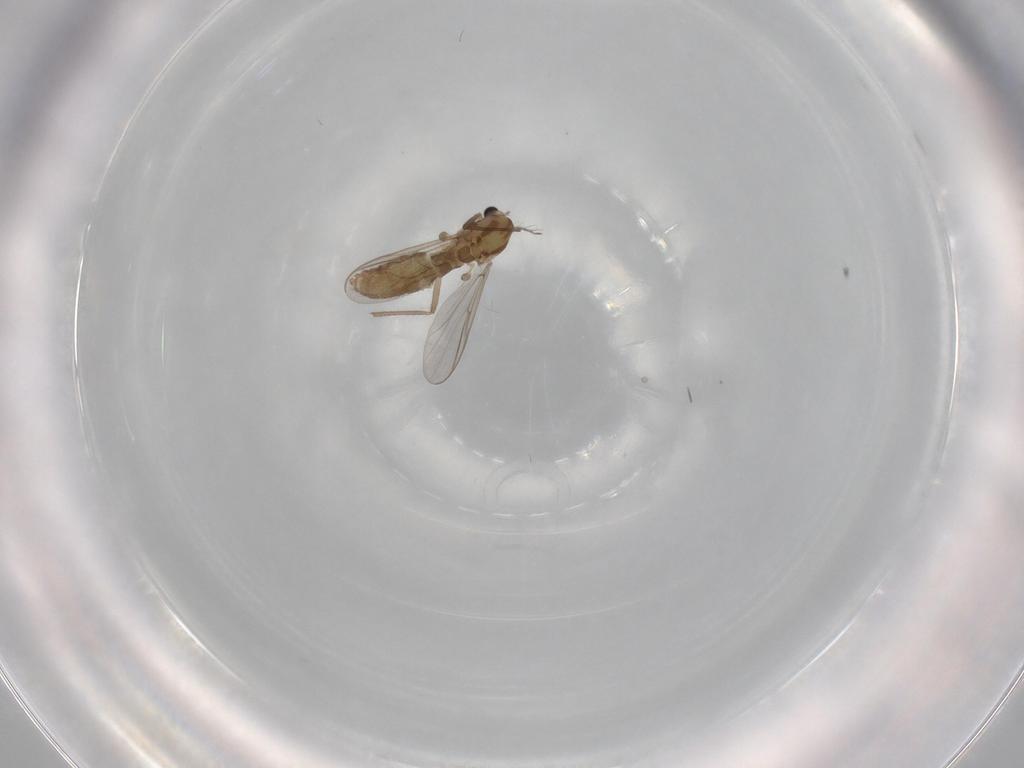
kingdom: Animalia
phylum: Arthropoda
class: Insecta
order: Diptera
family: Chironomidae
